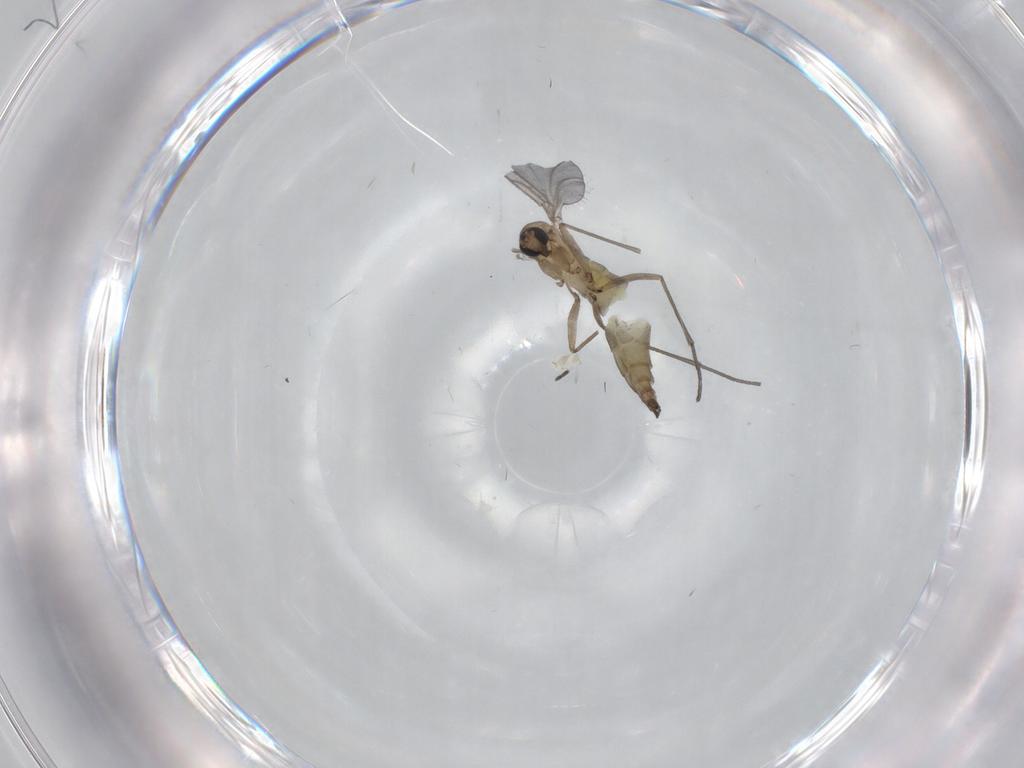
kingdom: Animalia
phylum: Arthropoda
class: Insecta
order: Diptera
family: Sciaridae
